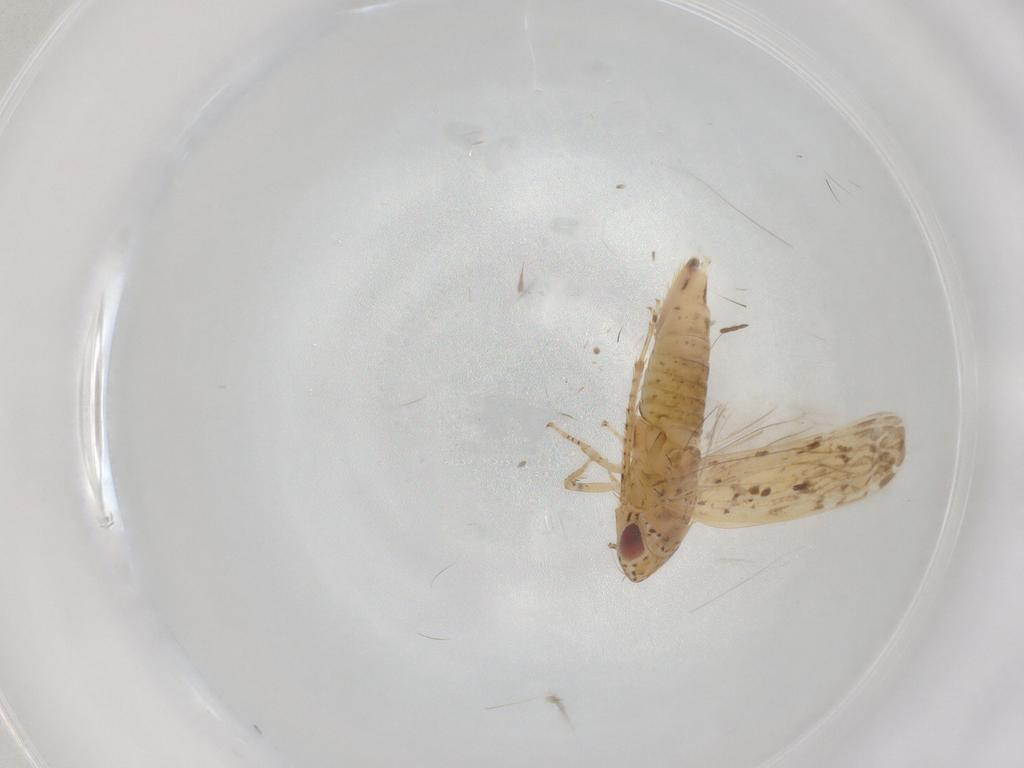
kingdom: Animalia
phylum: Arthropoda
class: Insecta
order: Hemiptera
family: Cicadellidae
